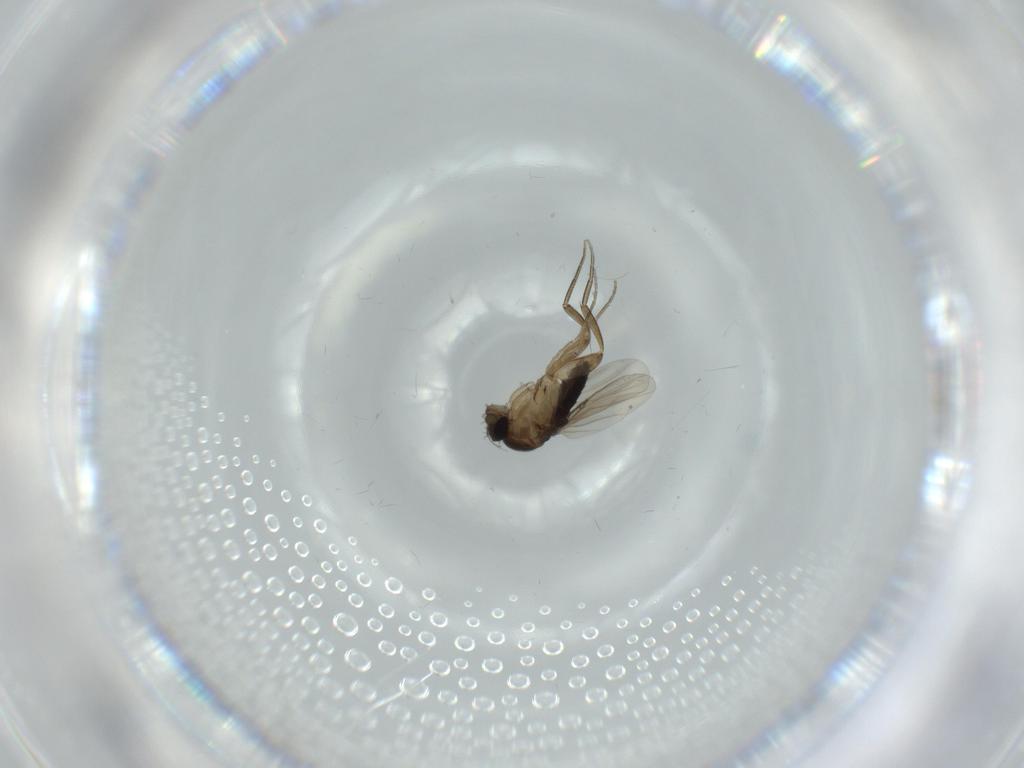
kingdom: Animalia
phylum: Arthropoda
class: Insecta
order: Diptera
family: Phoridae
